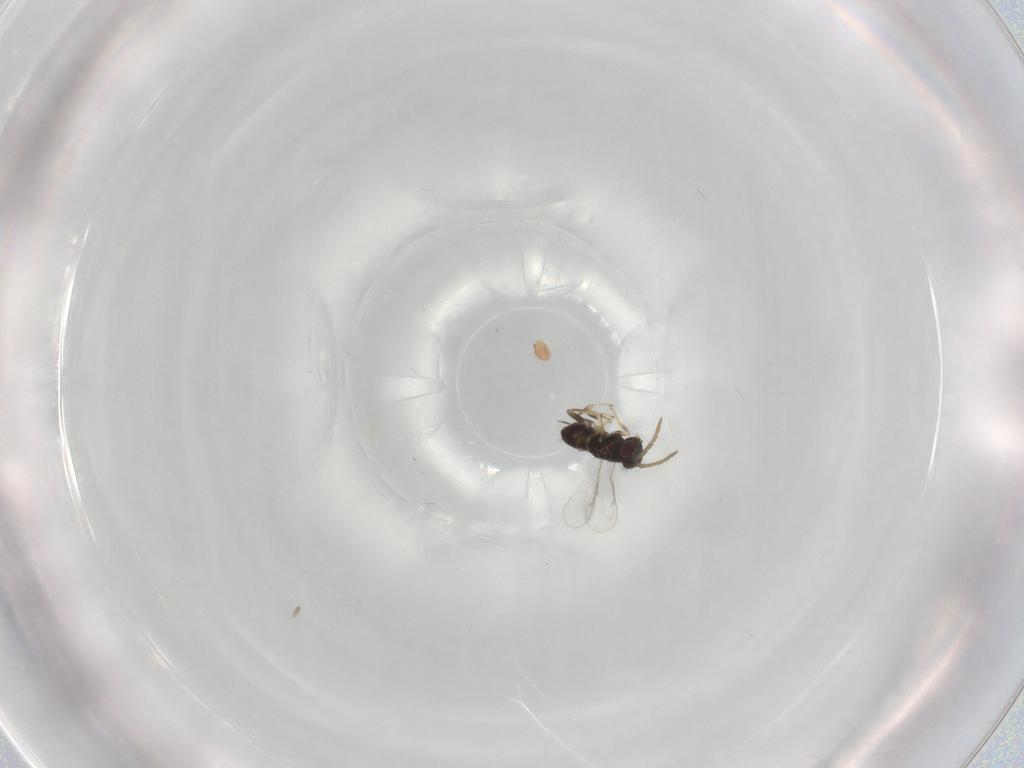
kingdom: Animalia
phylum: Arthropoda
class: Insecta
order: Hymenoptera
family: Aphelinidae
